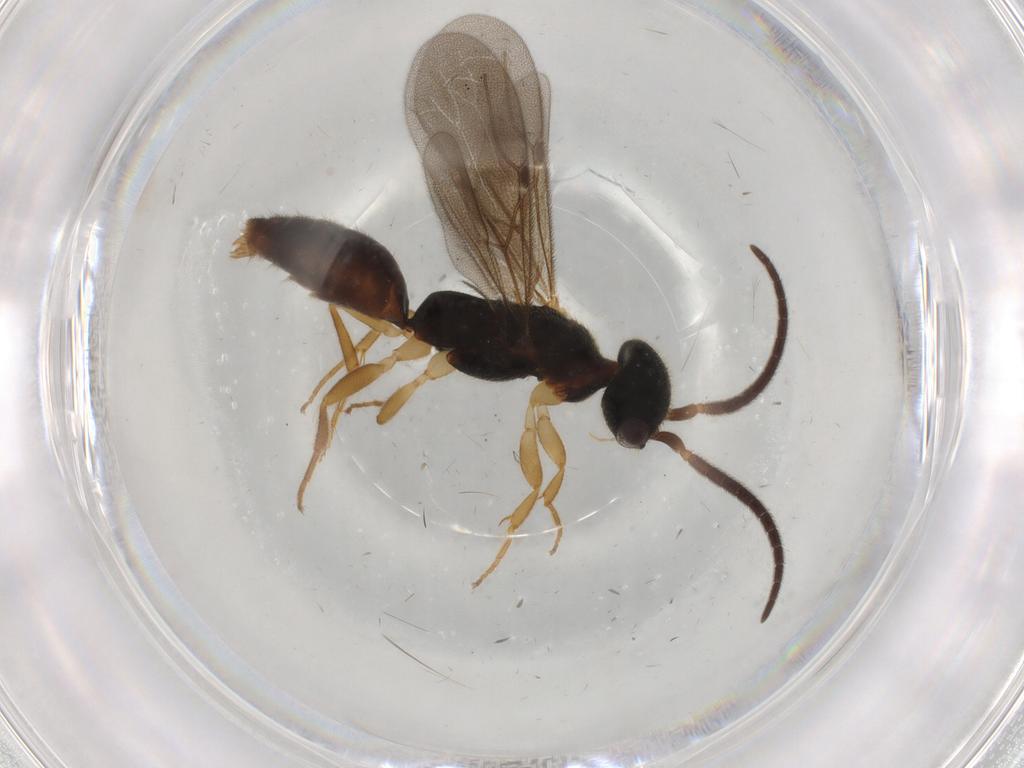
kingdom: Animalia
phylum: Arthropoda
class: Insecta
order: Hymenoptera
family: Bethylidae
